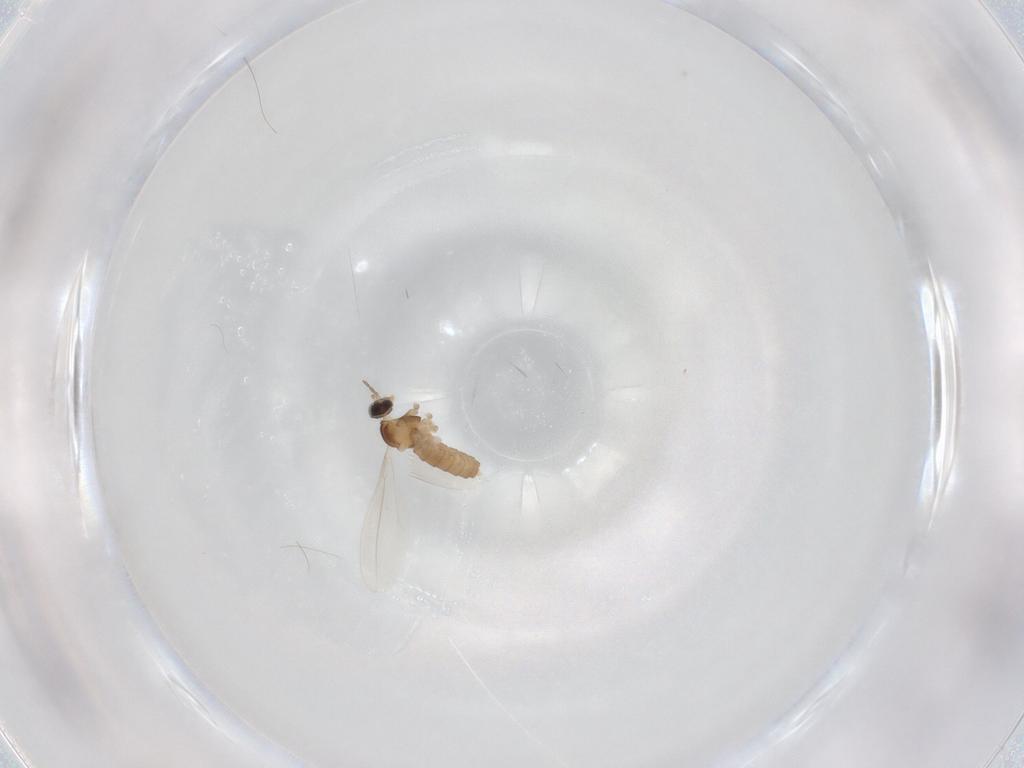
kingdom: Animalia
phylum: Arthropoda
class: Insecta
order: Diptera
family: Cecidomyiidae
